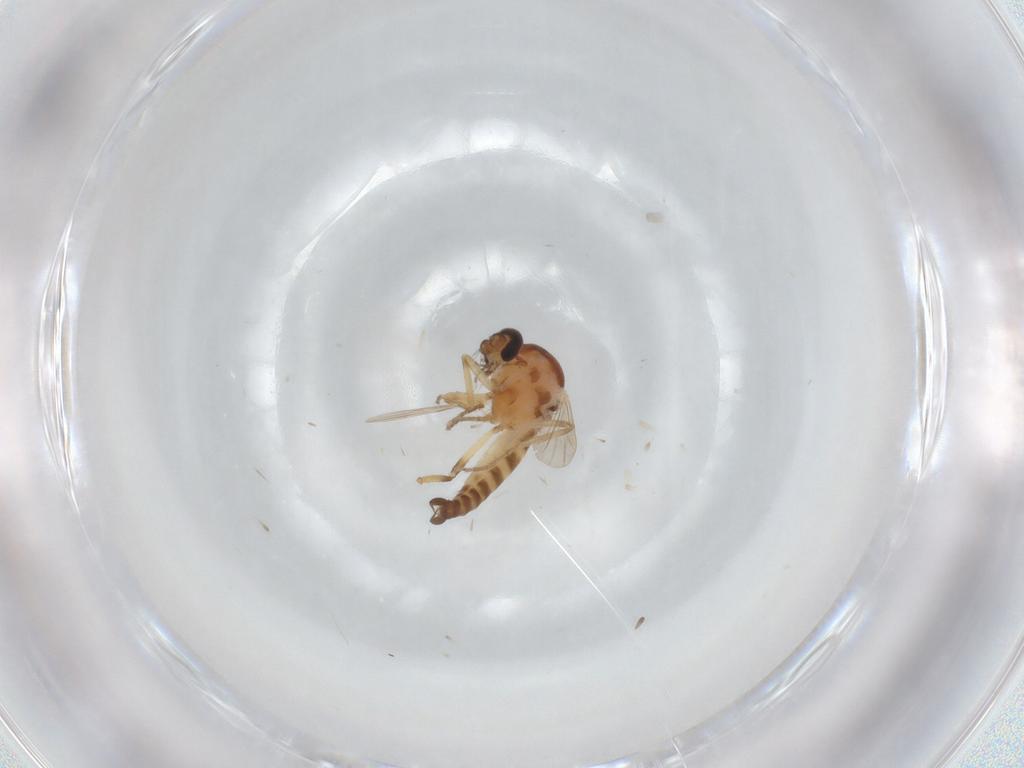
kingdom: Animalia
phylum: Arthropoda
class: Insecta
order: Diptera
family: Ceratopogonidae
